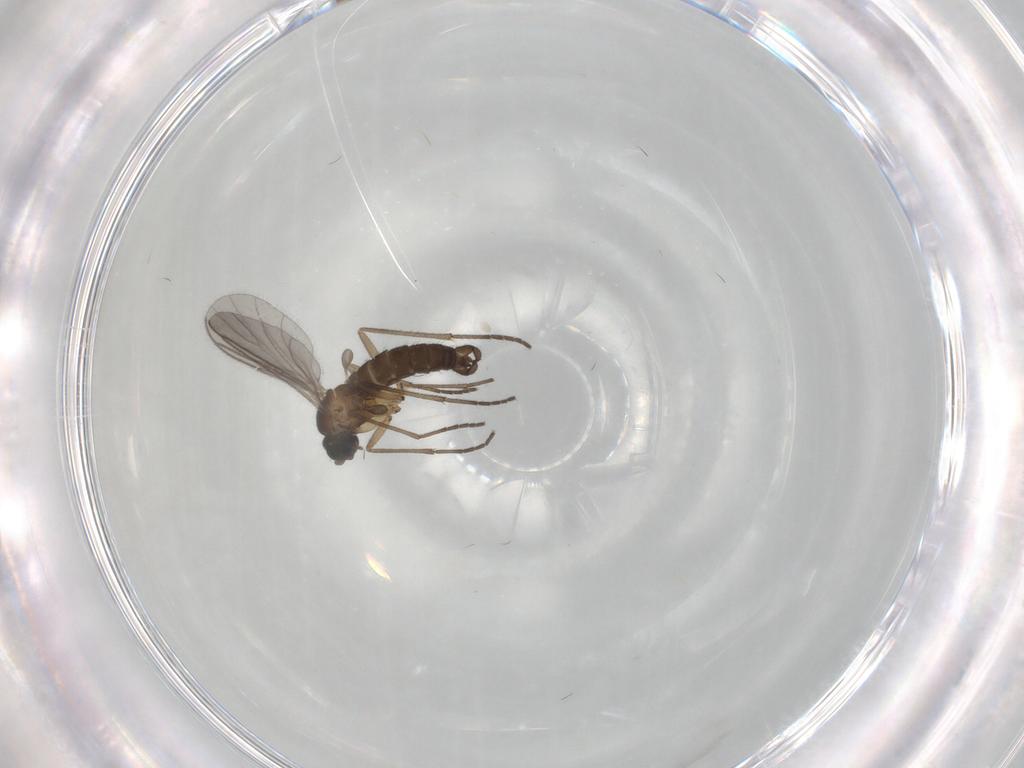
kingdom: Animalia
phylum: Arthropoda
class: Insecta
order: Diptera
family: Sciaridae
